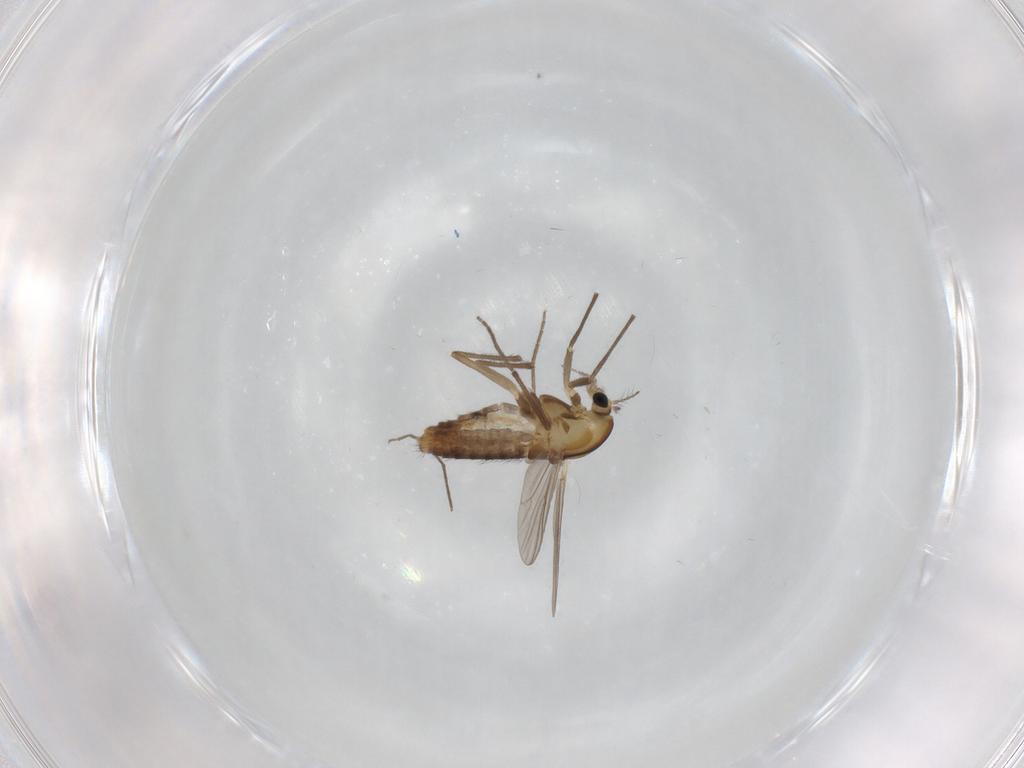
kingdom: Animalia
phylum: Arthropoda
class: Insecta
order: Diptera
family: Chironomidae
